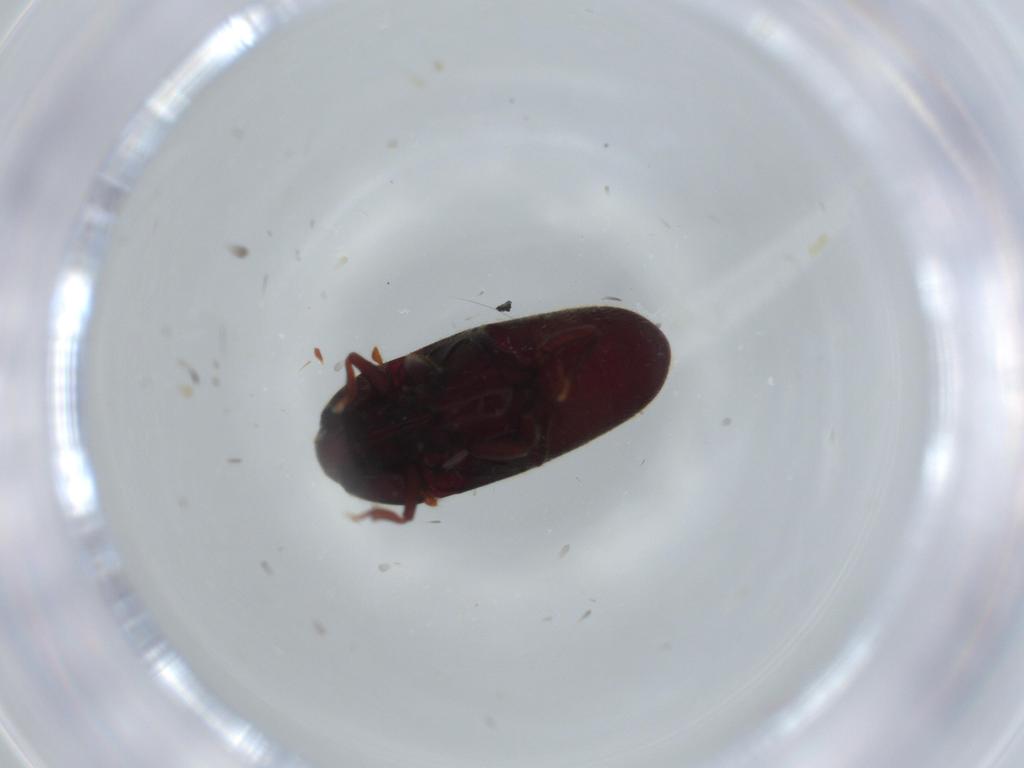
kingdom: Animalia
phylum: Arthropoda
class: Insecta
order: Coleoptera
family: Throscidae
